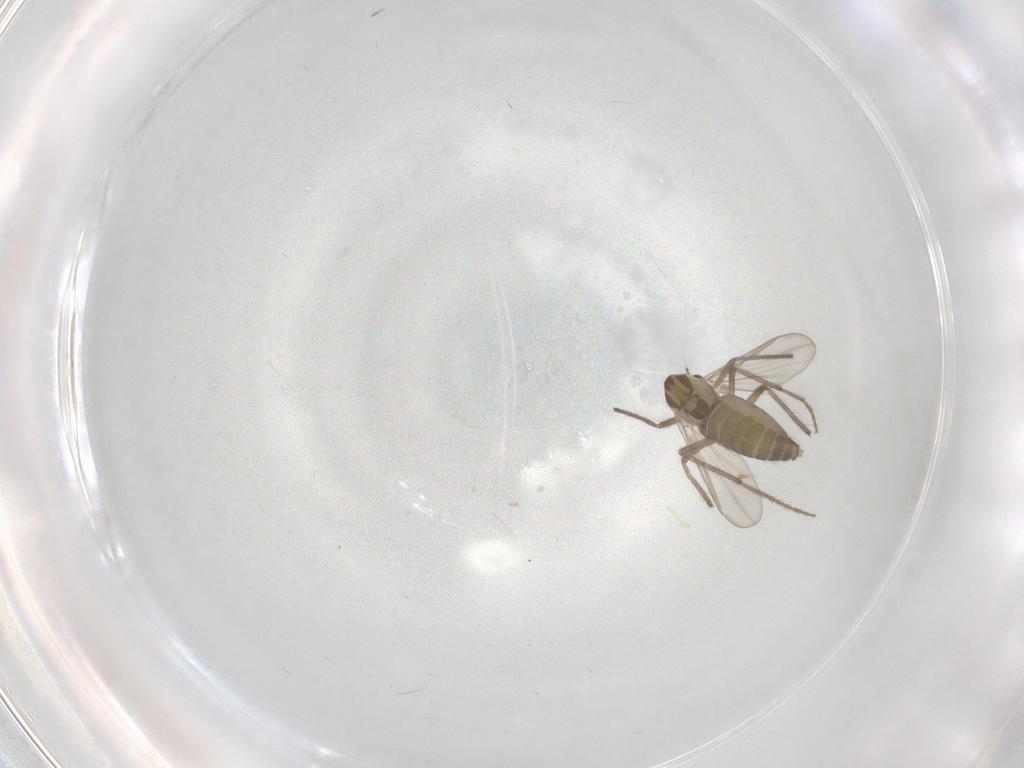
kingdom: Animalia
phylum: Arthropoda
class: Insecta
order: Diptera
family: Chironomidae
